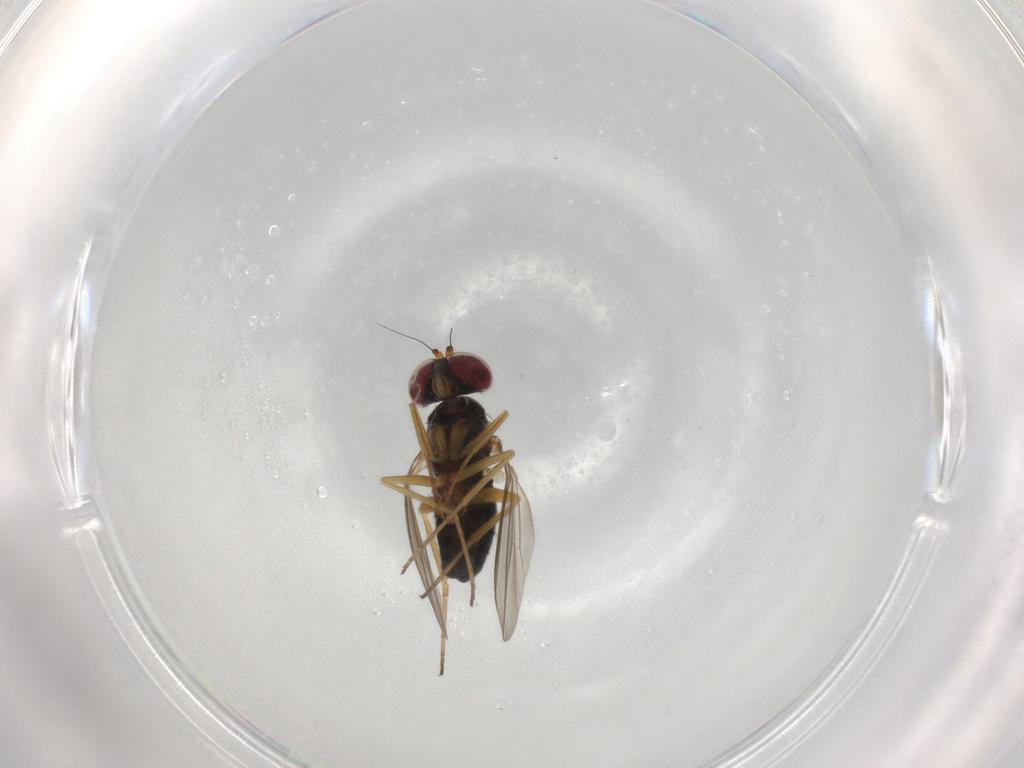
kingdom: Animalia
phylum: Arthropoda
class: Insecta
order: Diptera
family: Dolichopodidae
